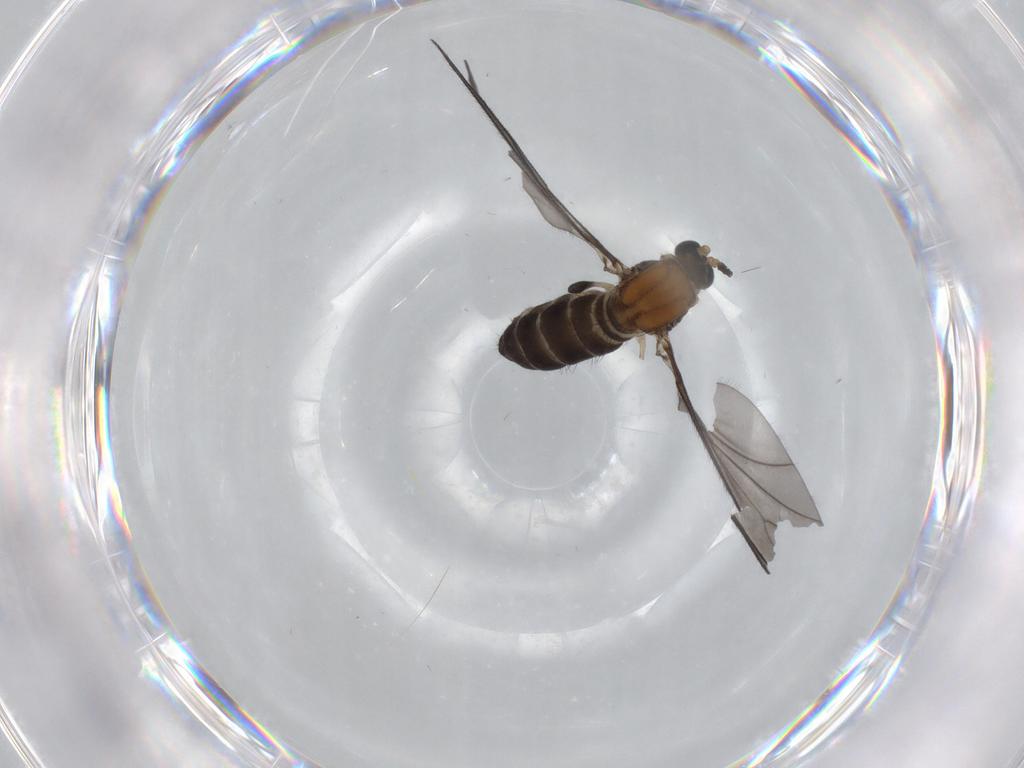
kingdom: Animalia
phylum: Arthropoda
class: Insecta
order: Diptera
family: Sciaridae
